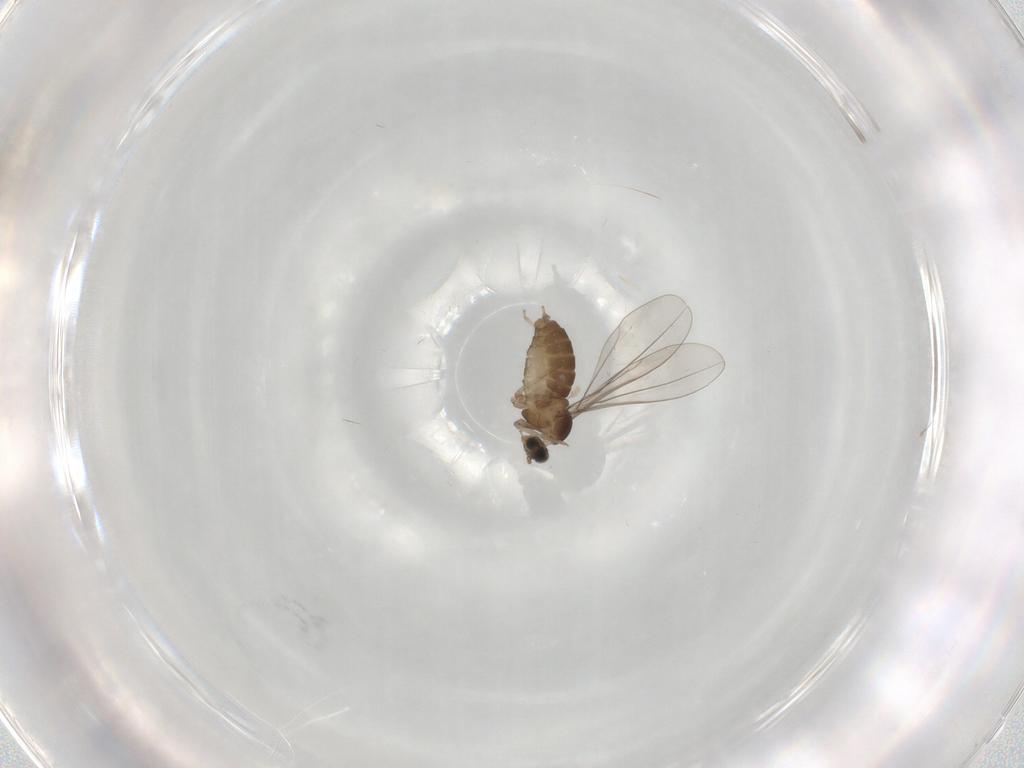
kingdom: Animalia
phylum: Arthropoda
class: Insecta
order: Diptera
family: Cecidomyiidae
